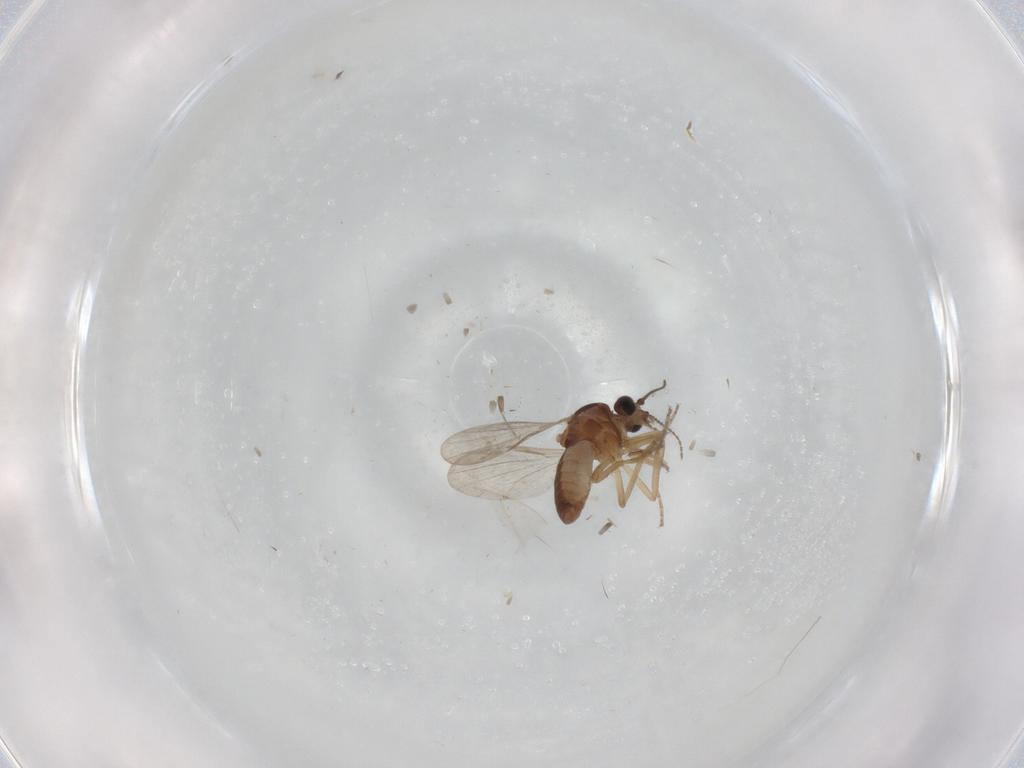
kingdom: Animalia
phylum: Arthropoda
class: Insecta
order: Diptera
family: Ceratopogonidae
